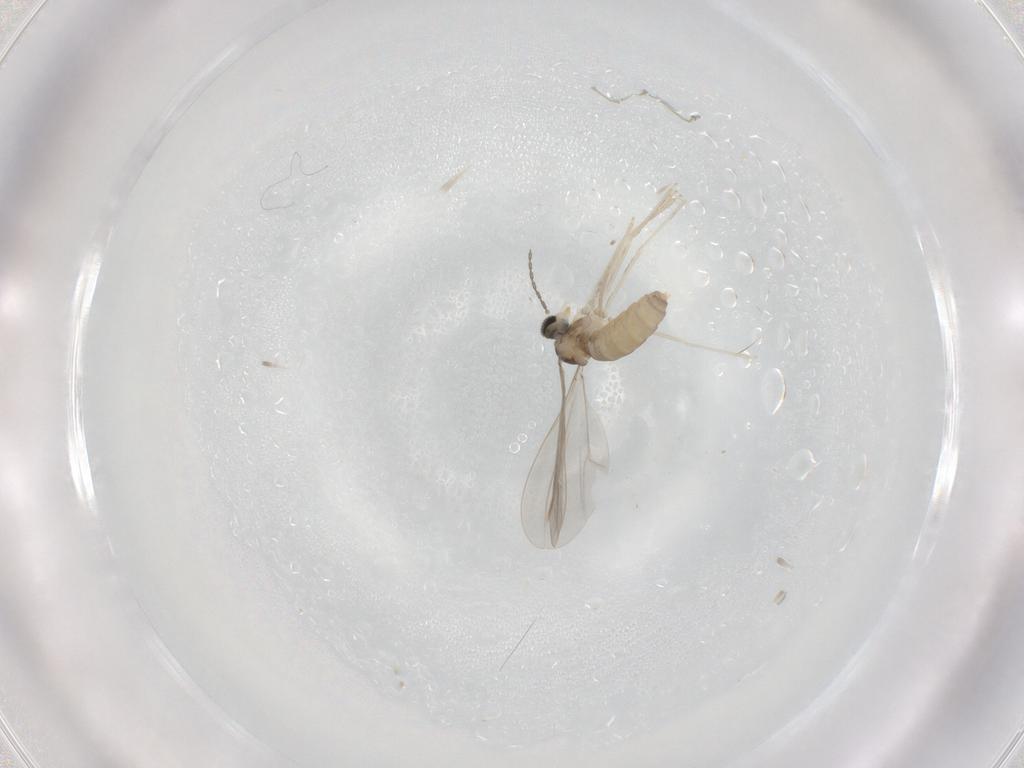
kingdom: Animalia
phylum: Arthropoda
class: Insecta
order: Diptera
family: Cecidomyiidae
